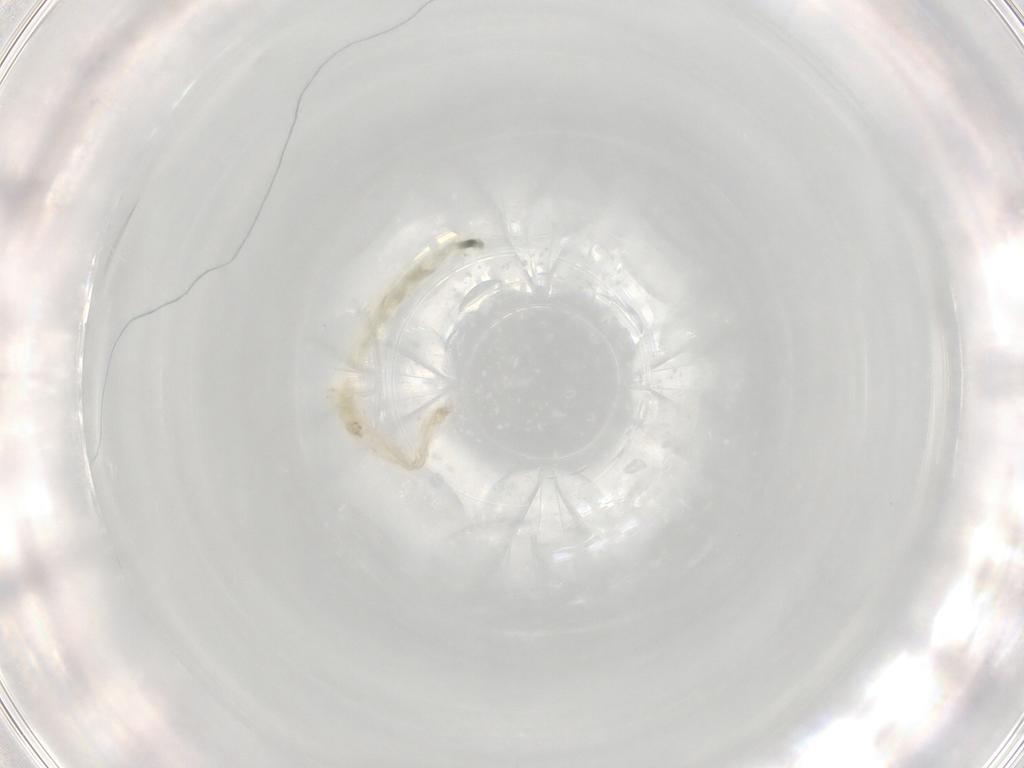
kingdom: Animalia
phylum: Arthropoda
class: Insecta
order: Diptera
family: Chironomidae
